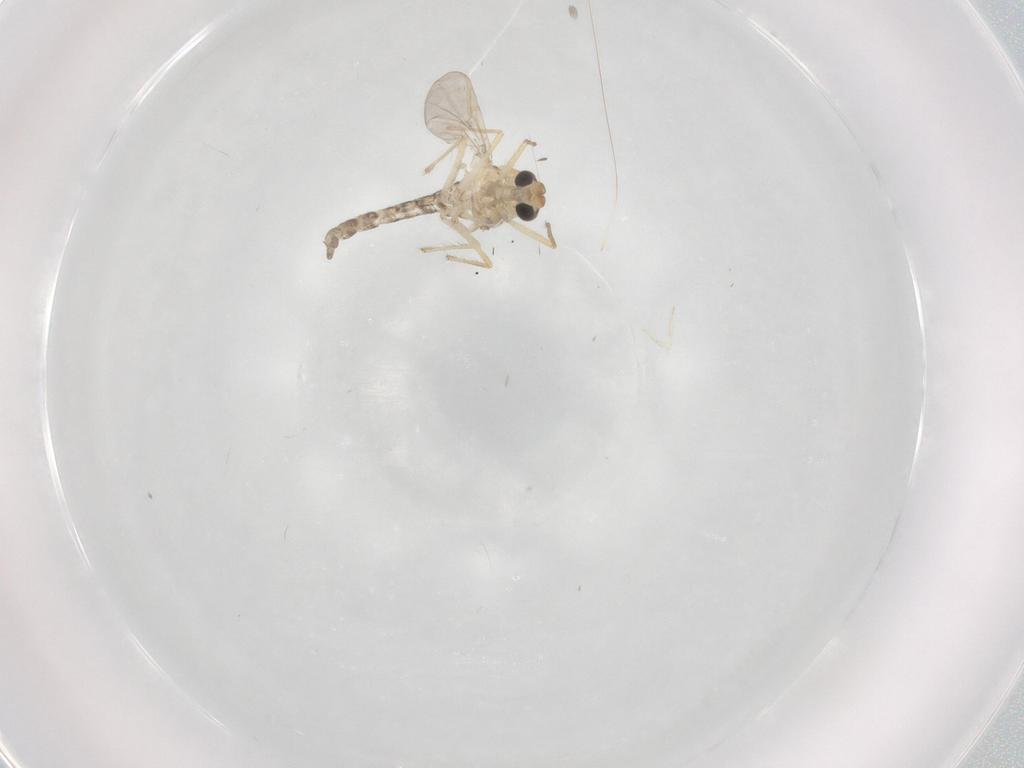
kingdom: Animalia
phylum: Arthropoda
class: Insecta
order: Diptera
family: Chironomidae
